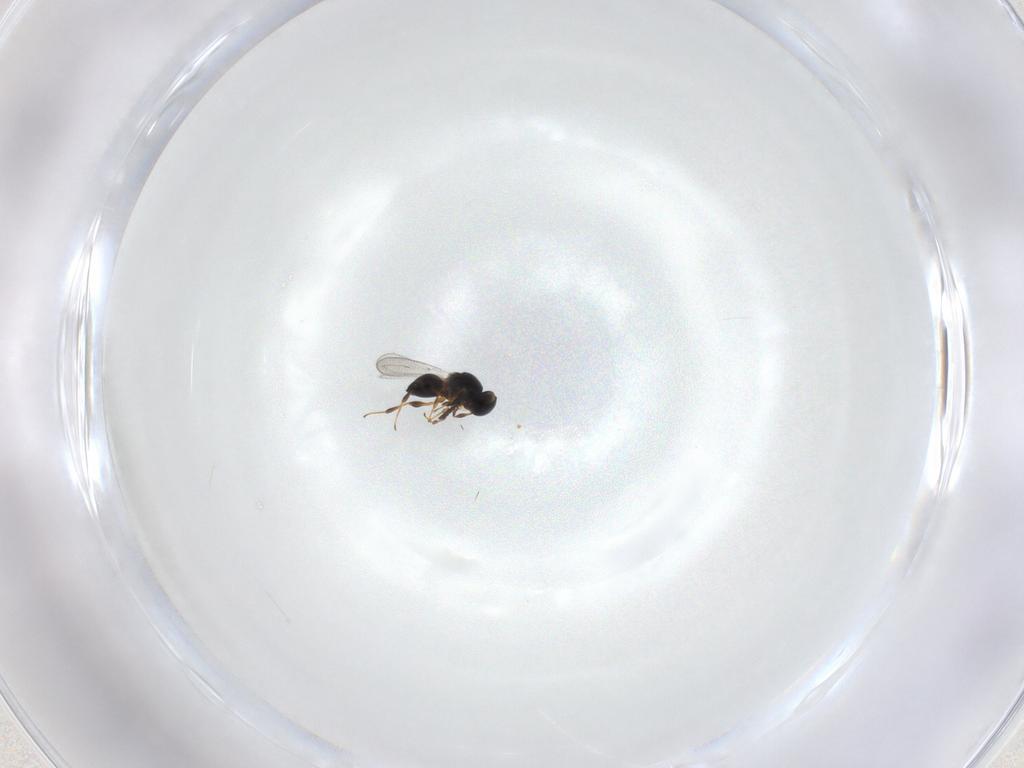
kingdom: Animalia
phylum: Arthropoda
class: Insecta
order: Hymenoptera
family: Platygastridae
